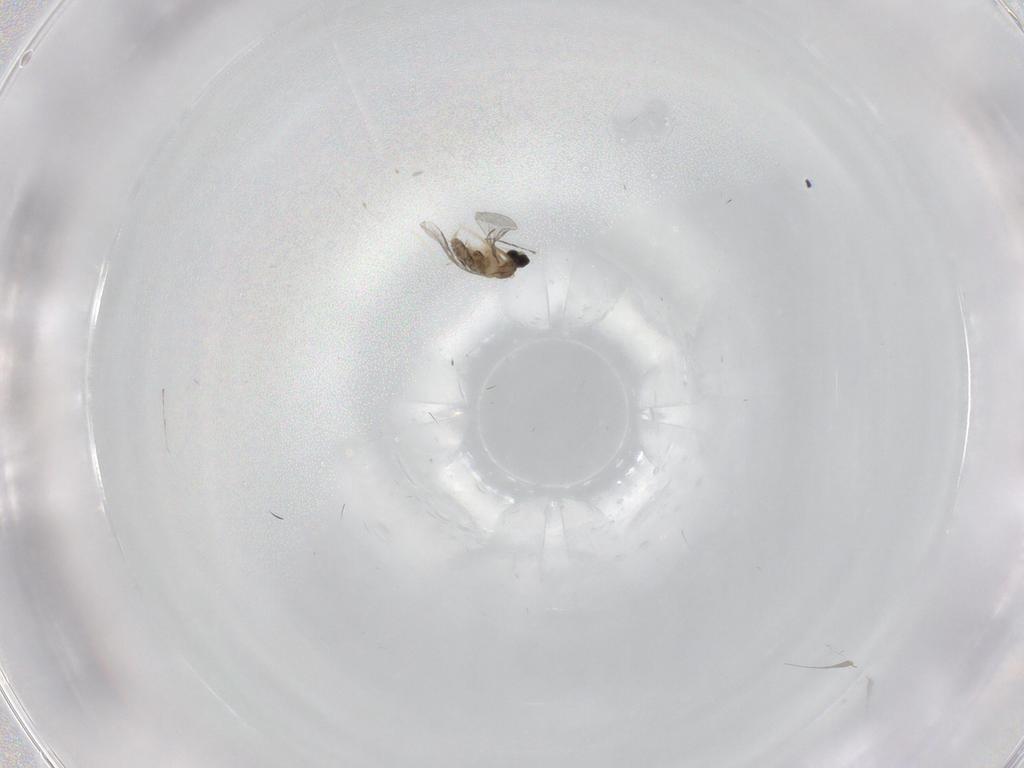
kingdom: Animalia
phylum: Arthropoda
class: Insecta
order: Diptera
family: Cecidomyiidae
